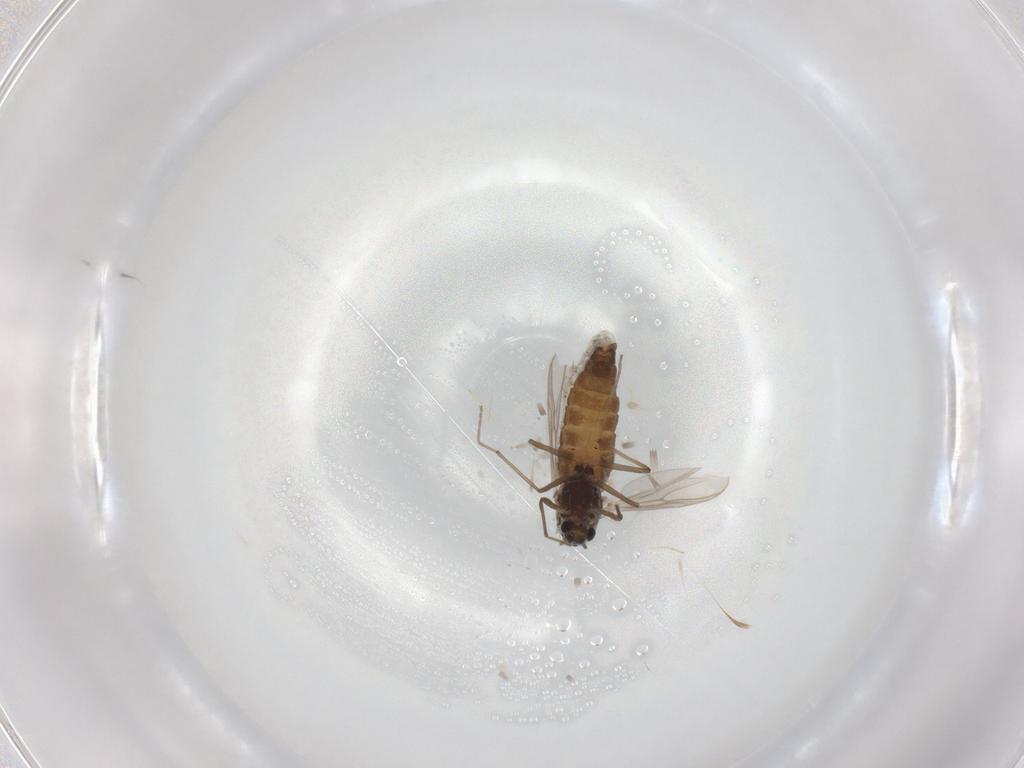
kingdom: Animalia
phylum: Arthropoda
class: Insecta
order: Diptera
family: Chironomidae
